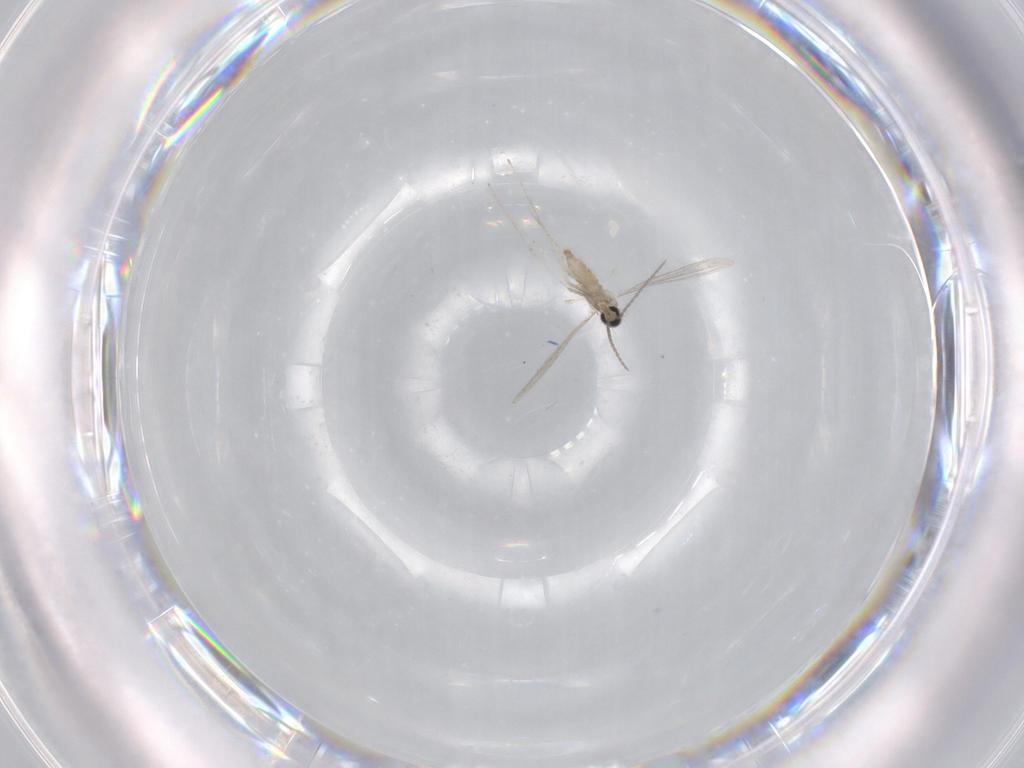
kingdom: Animalia
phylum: Arthropoda
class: Insecta
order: Diptera
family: Cecidomyiidae
